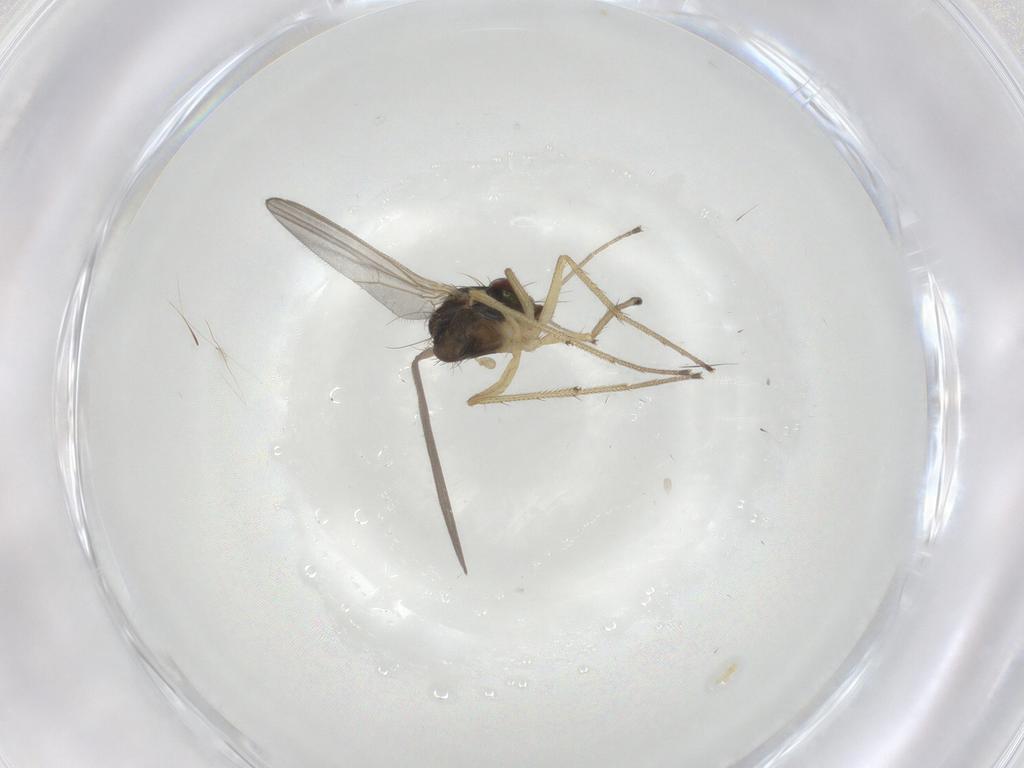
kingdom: Animalia
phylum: Arthropoda
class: Insecta
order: Diptera
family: Dolichopodidae
